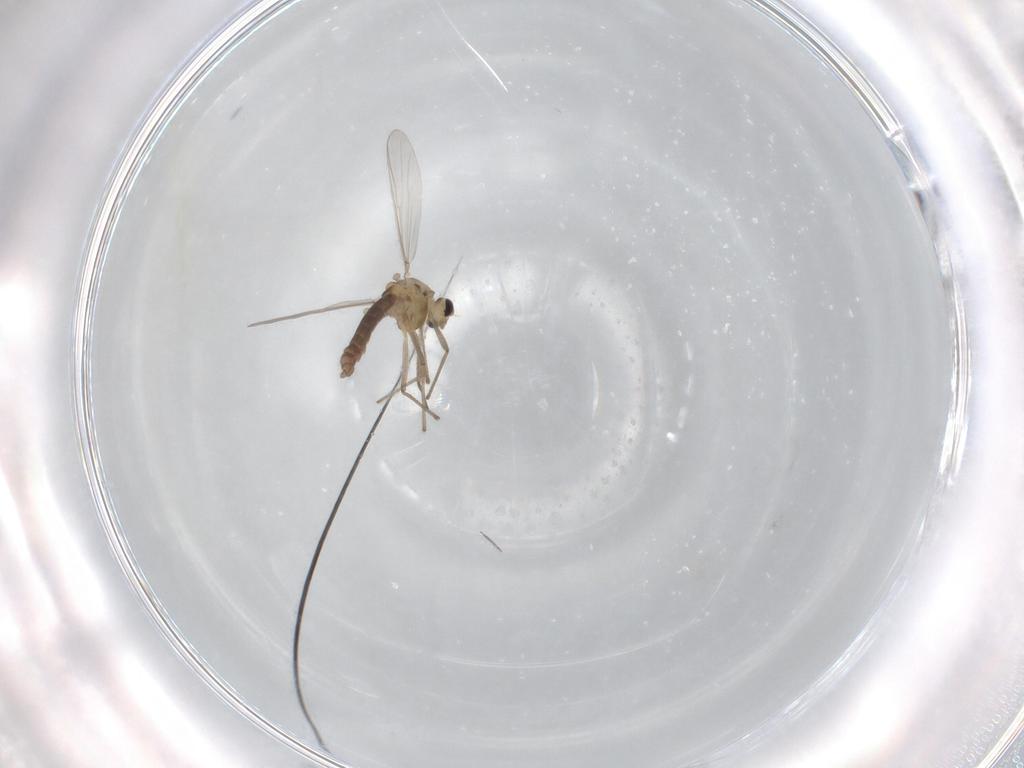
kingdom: Animalia
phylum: Arthropoda
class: Insecta
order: Diptera
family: Chironomidae
